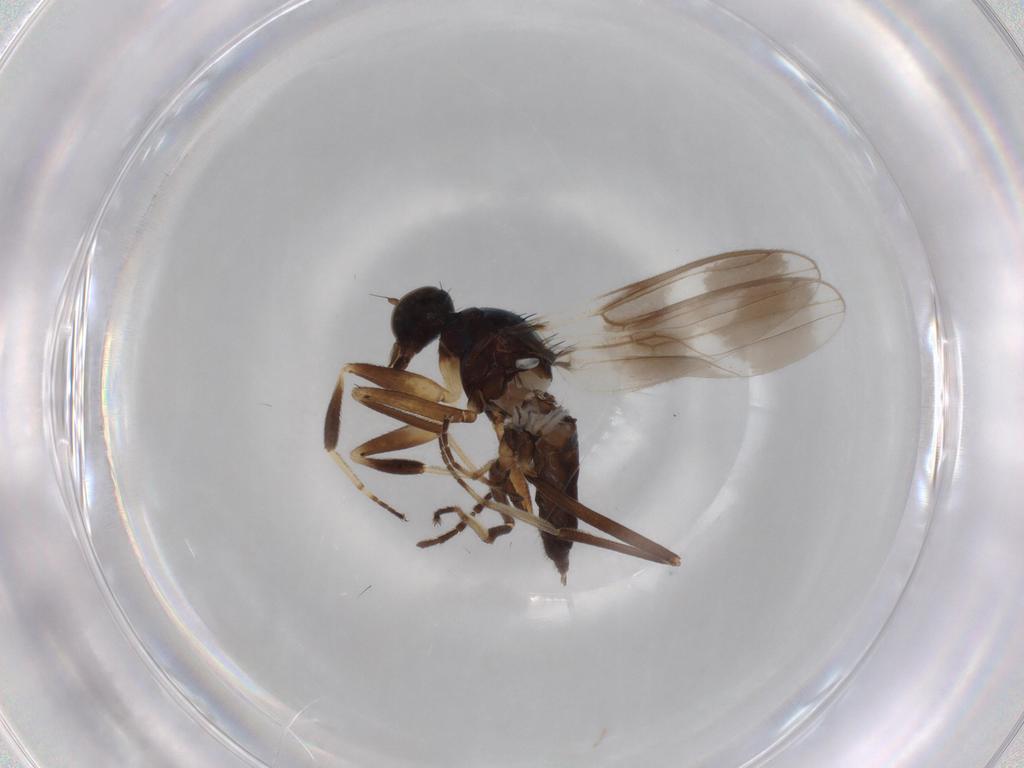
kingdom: Animalia
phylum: Arthropoda
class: Insecta
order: Diptera
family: Hybotidae
